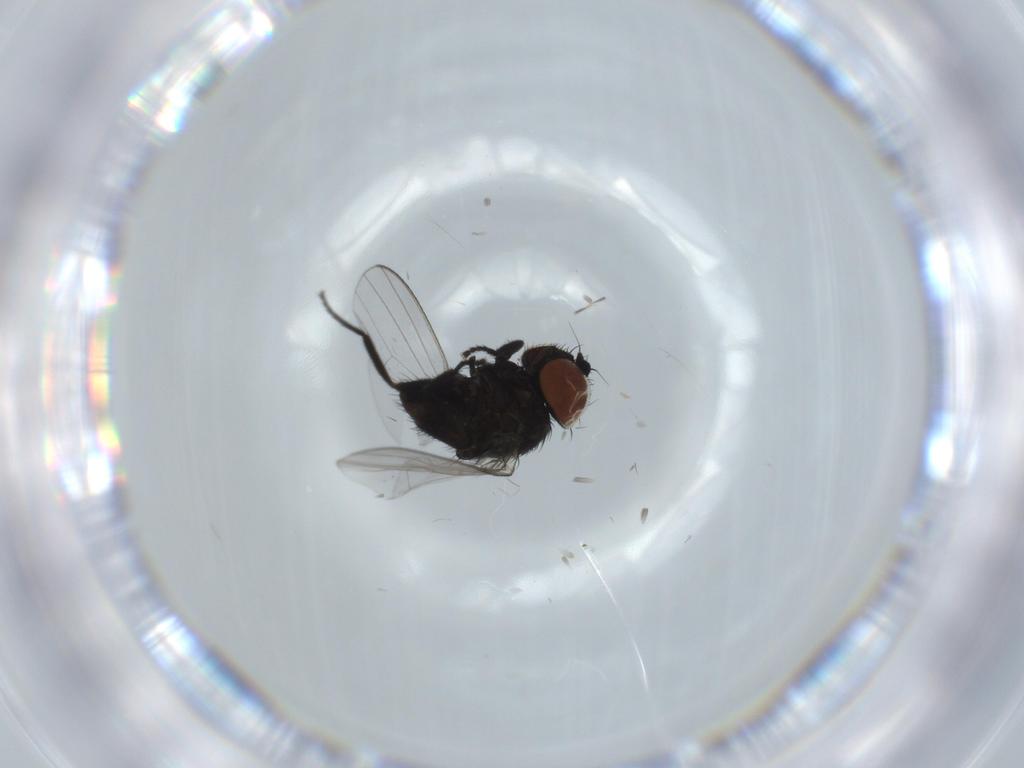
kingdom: Animalia
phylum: Arthropoda
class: Insecta
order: Diptera
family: Milichiidae
